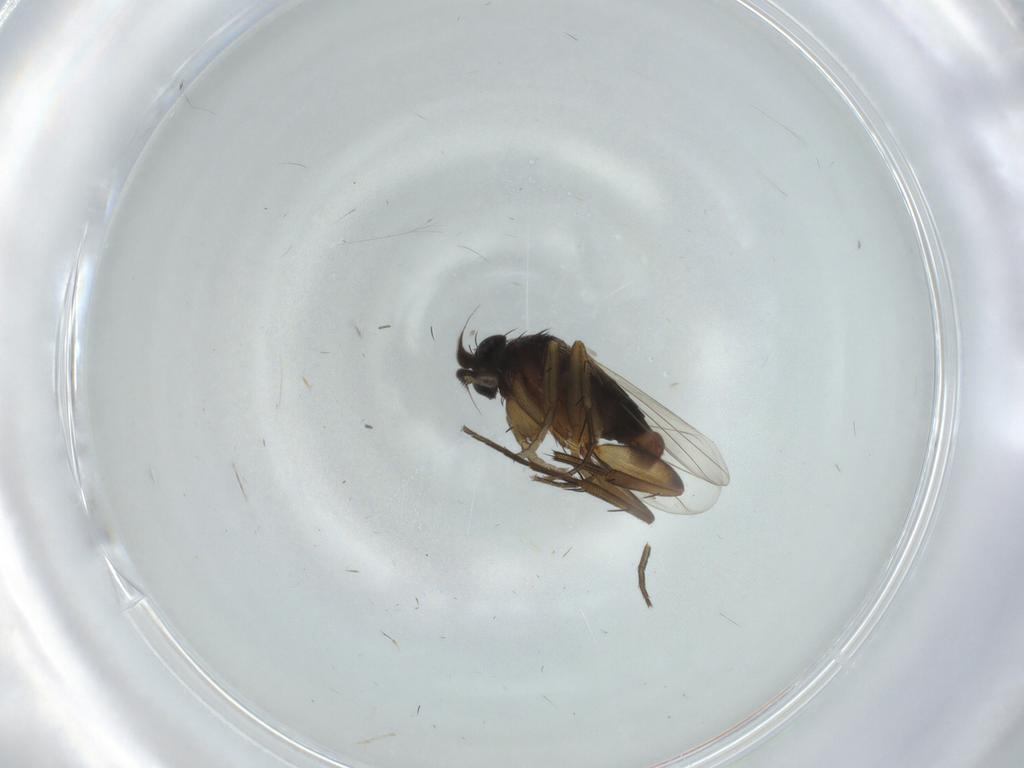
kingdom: Animalia
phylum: Arthropoda
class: Insecta
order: Diptera
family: Phoridae
